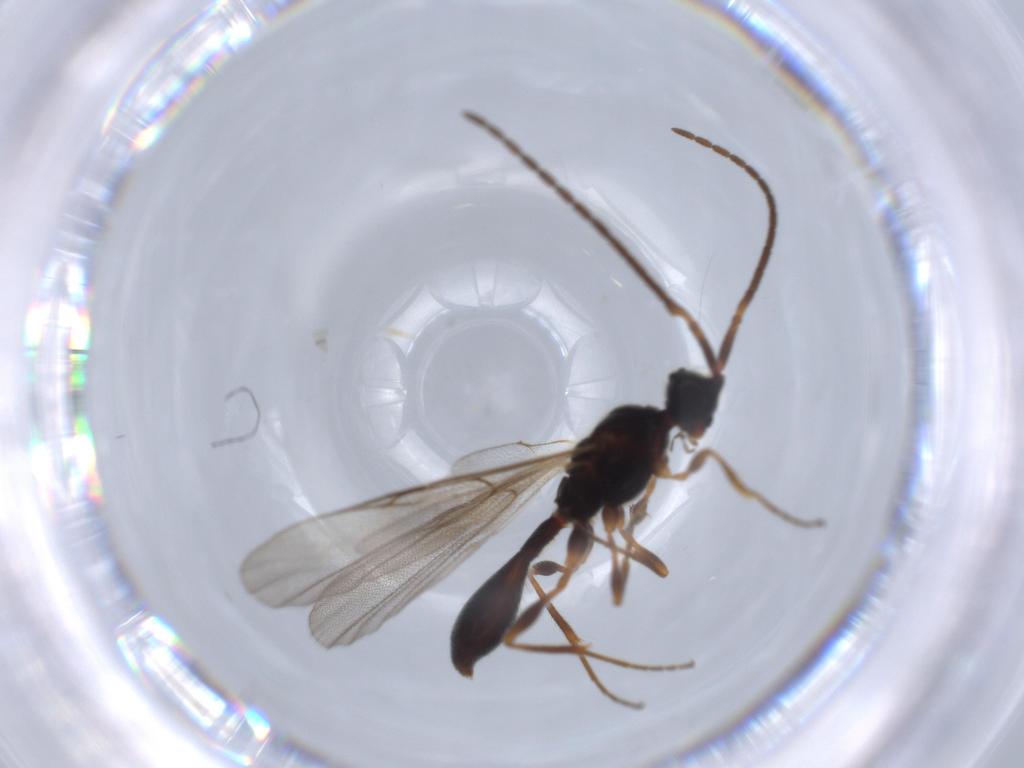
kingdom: Animalia
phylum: Arthropoda
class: Insecta
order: Hymenoptera
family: Diapriidae
